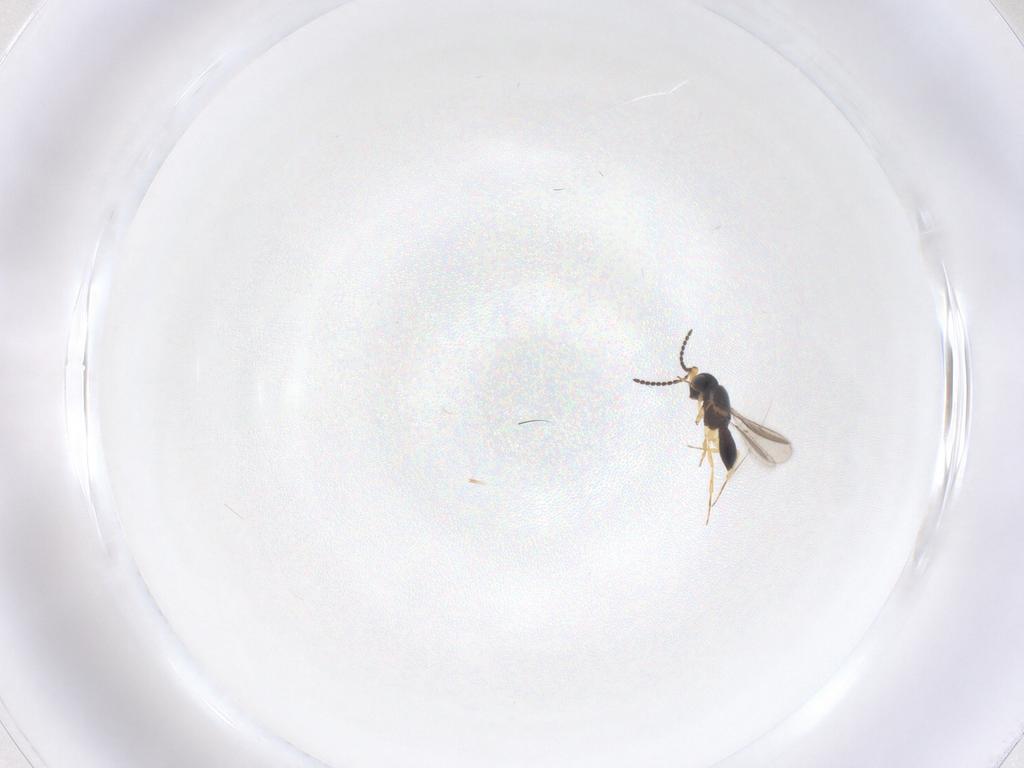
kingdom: Animalia
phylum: Arthropoda
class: Insecta
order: Hymenoptera
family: Scelionidae
